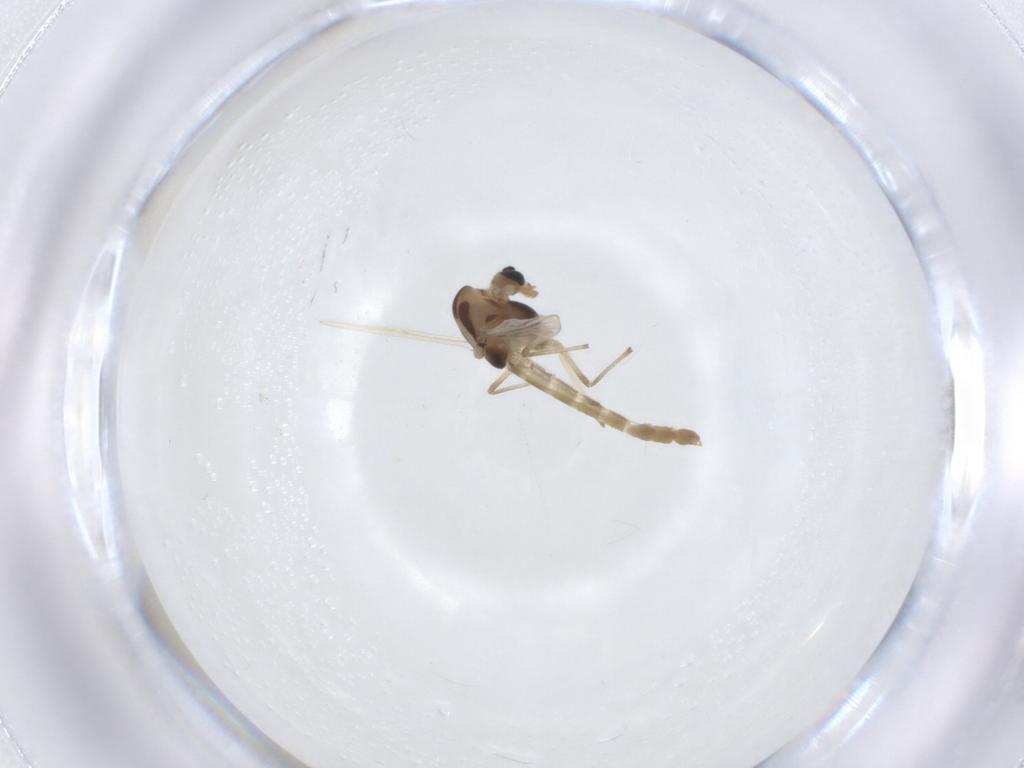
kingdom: Animalia
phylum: Arthropoda
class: Insecta
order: Diptera
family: Chironomidae
